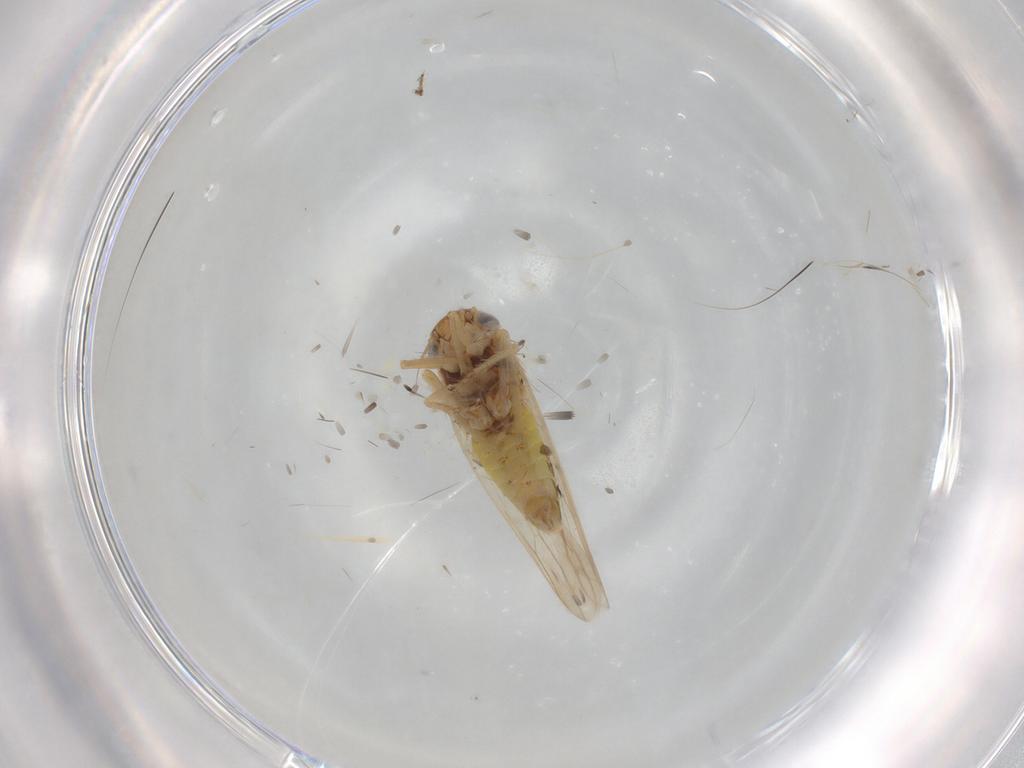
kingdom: Animalia
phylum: Arthropoda
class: Insecta
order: Hemiptera
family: Cicadellidae
